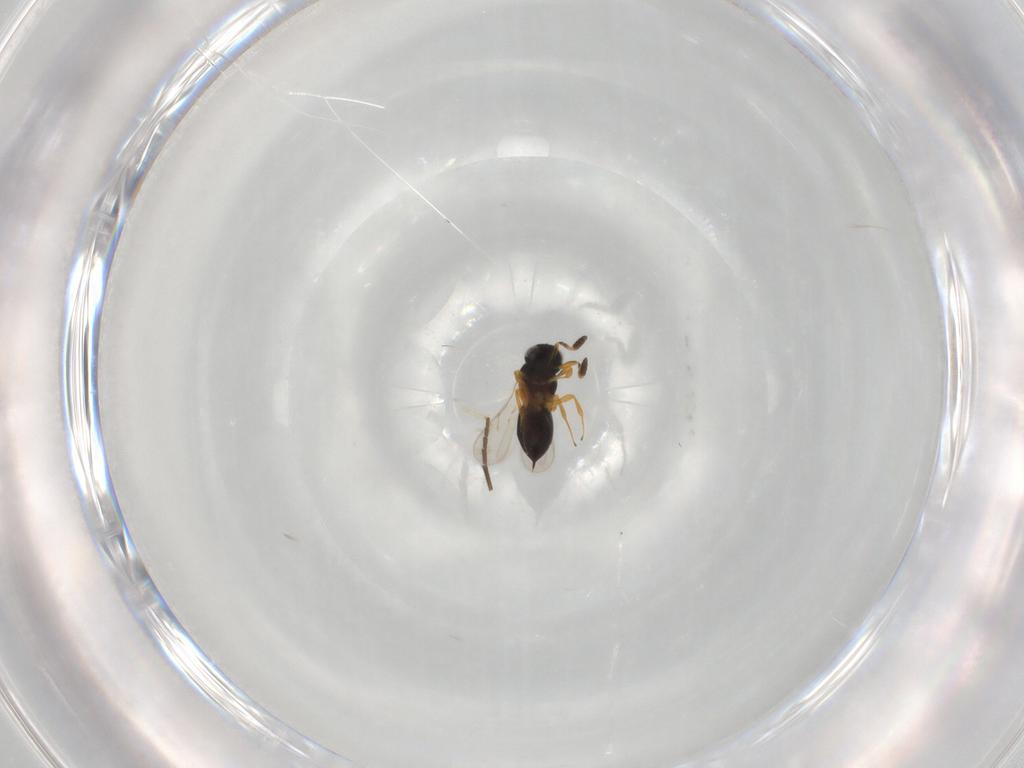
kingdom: Animalia
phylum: Arthropoda
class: Insecta
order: Hymenoptera
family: Scelionidae
